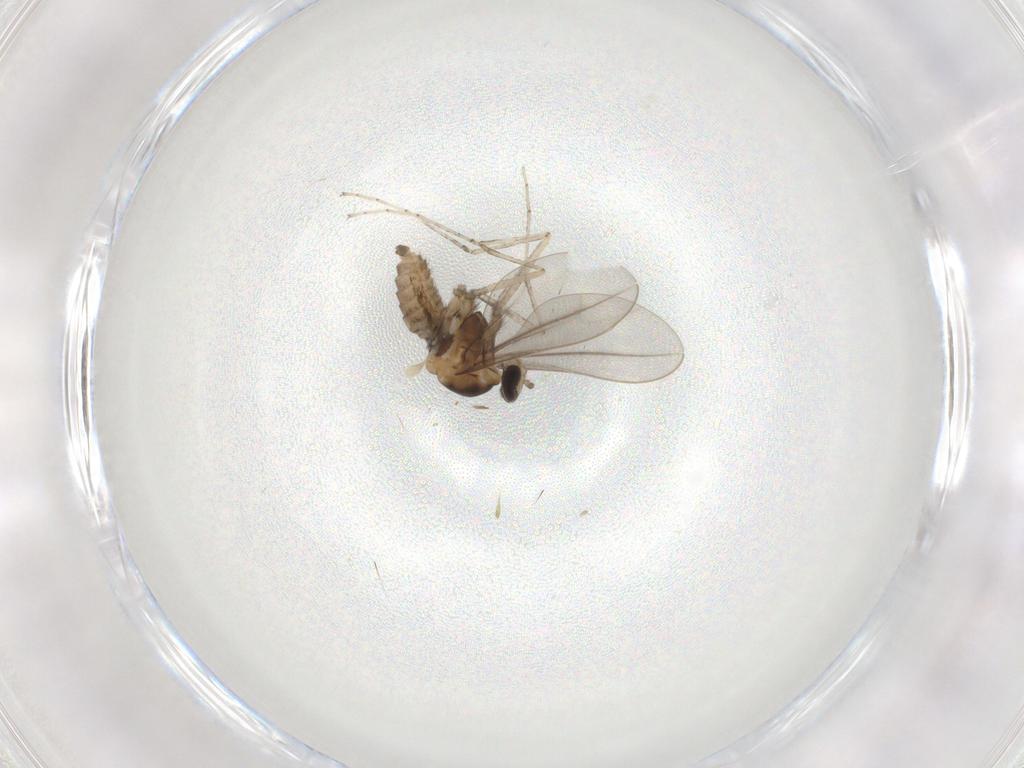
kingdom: Animalia
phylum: Arthropoda
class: Insecta
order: Diptera
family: Cecidomyiidae
